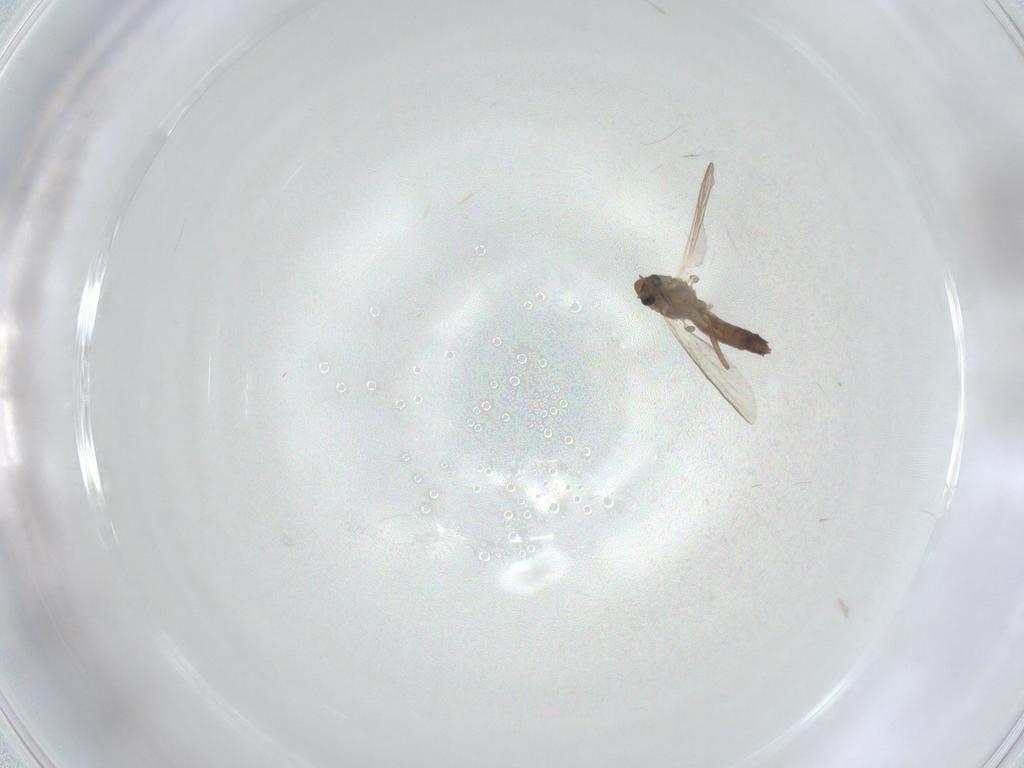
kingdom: Animalia
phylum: Arthropoda
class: Insecta
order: Diptera
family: Chironomidae
